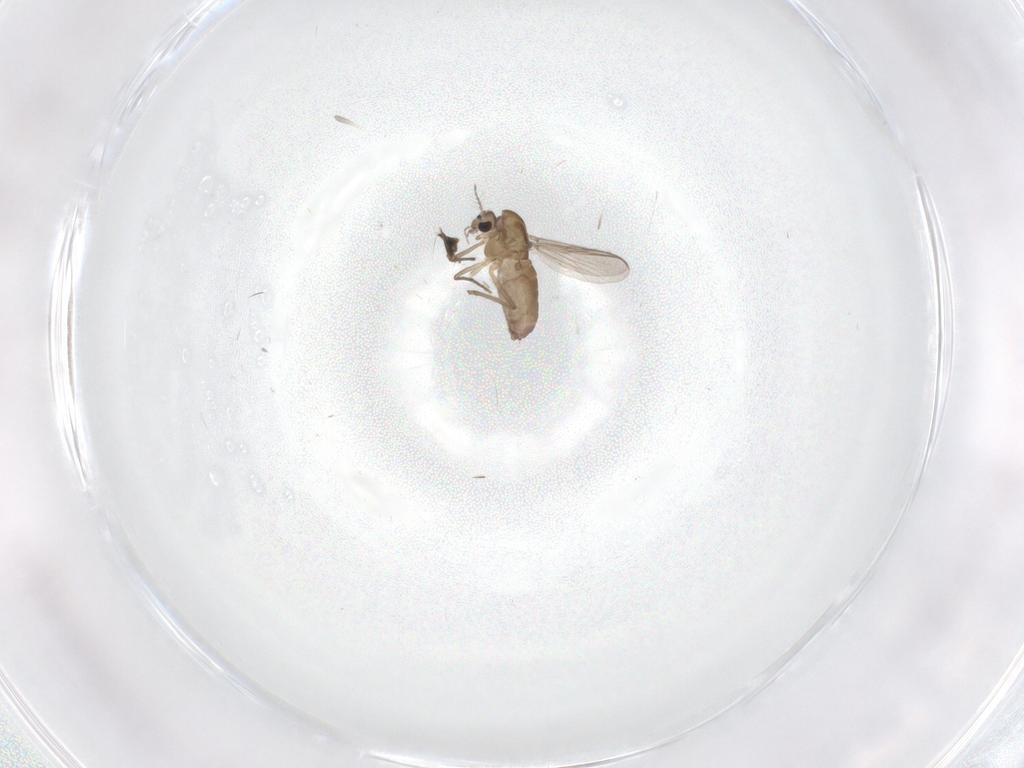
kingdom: Animalia
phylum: Arthropoda
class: Insecta
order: Diptera
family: Chironomidae
